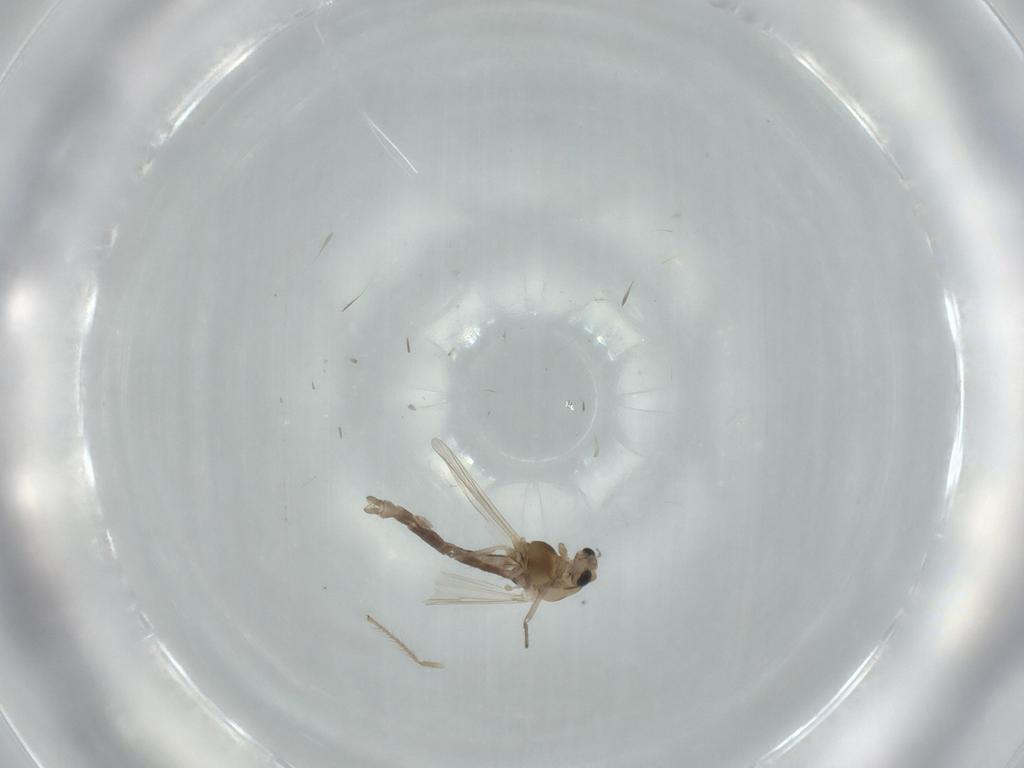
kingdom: Animalia
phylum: Arthropoda
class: Insecta
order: Diptera
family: Chironomidae
